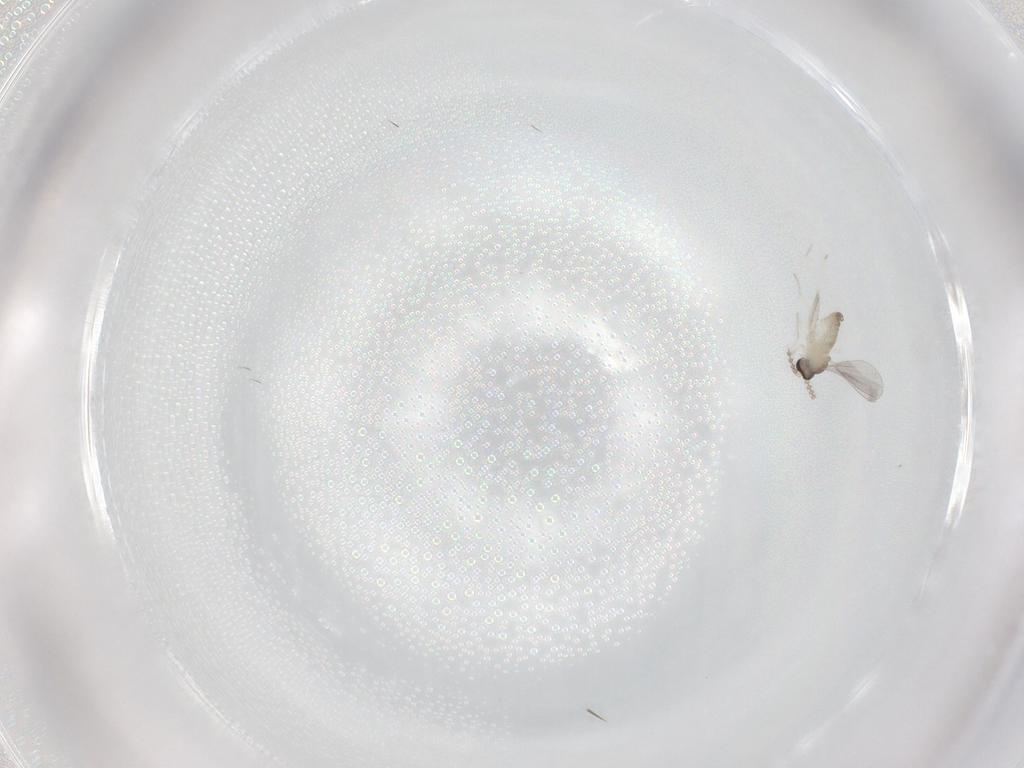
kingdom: Animalia
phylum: Arthropoda
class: Insecta
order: Diptera
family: Cecidomyiidae
